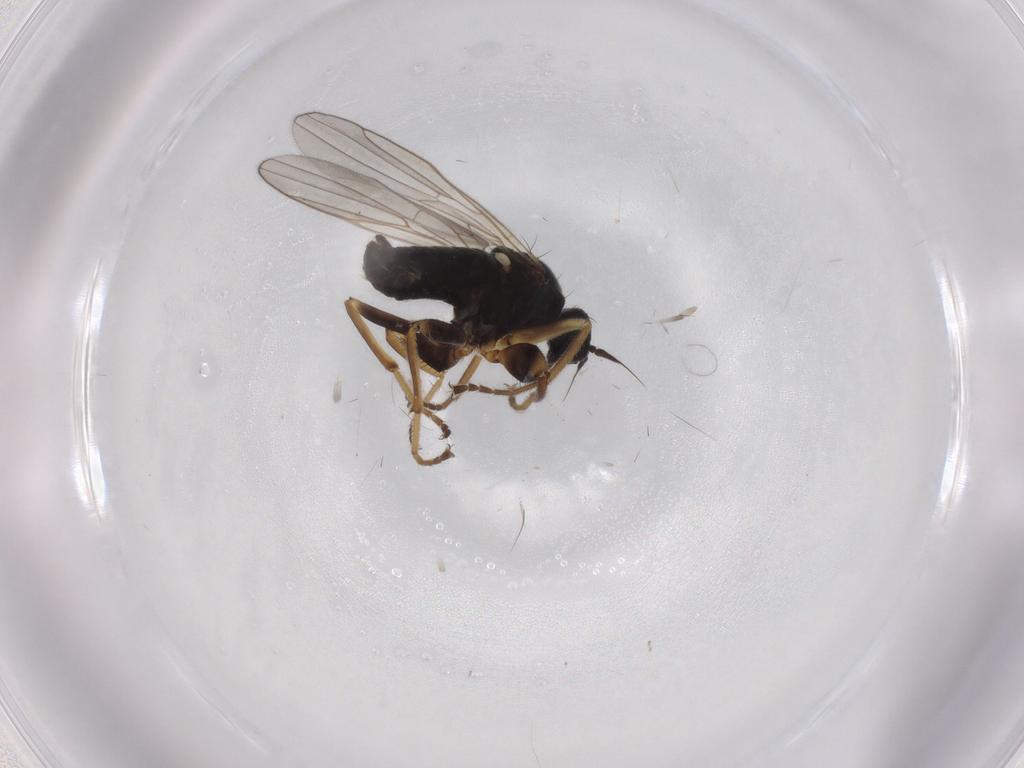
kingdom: Animalia
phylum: Arthropoda
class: Insecta
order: Diptera
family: Chironomidae
